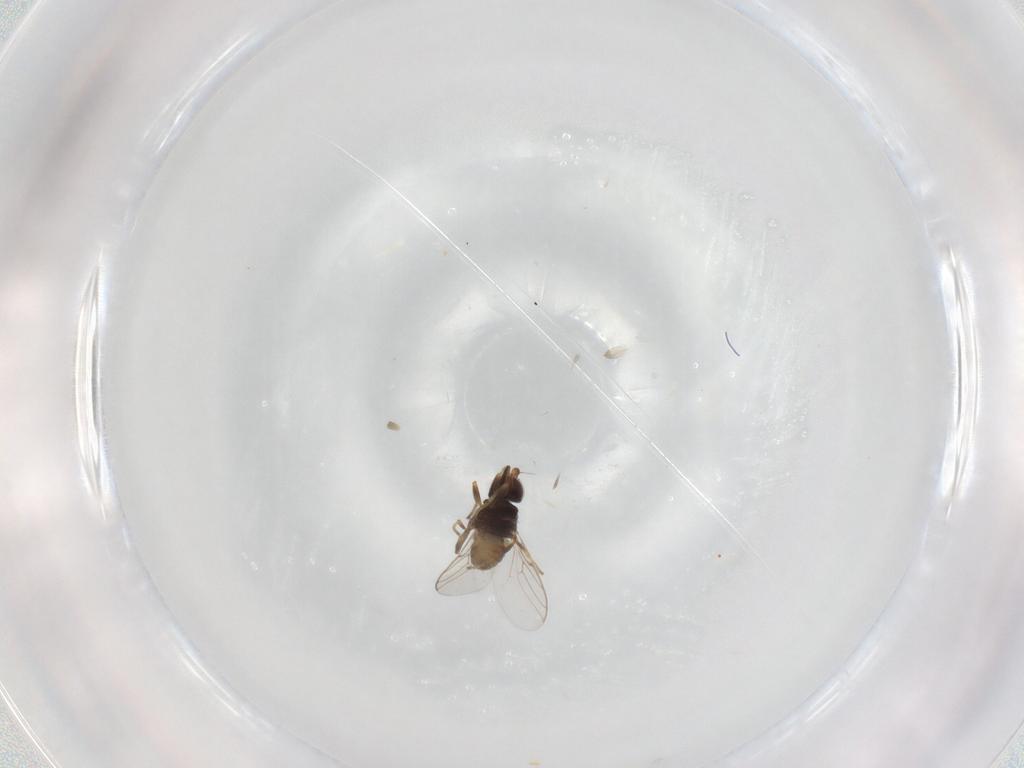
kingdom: Animalia
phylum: Arthropoda
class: Insecta
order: Diptera
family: Chloropidae
